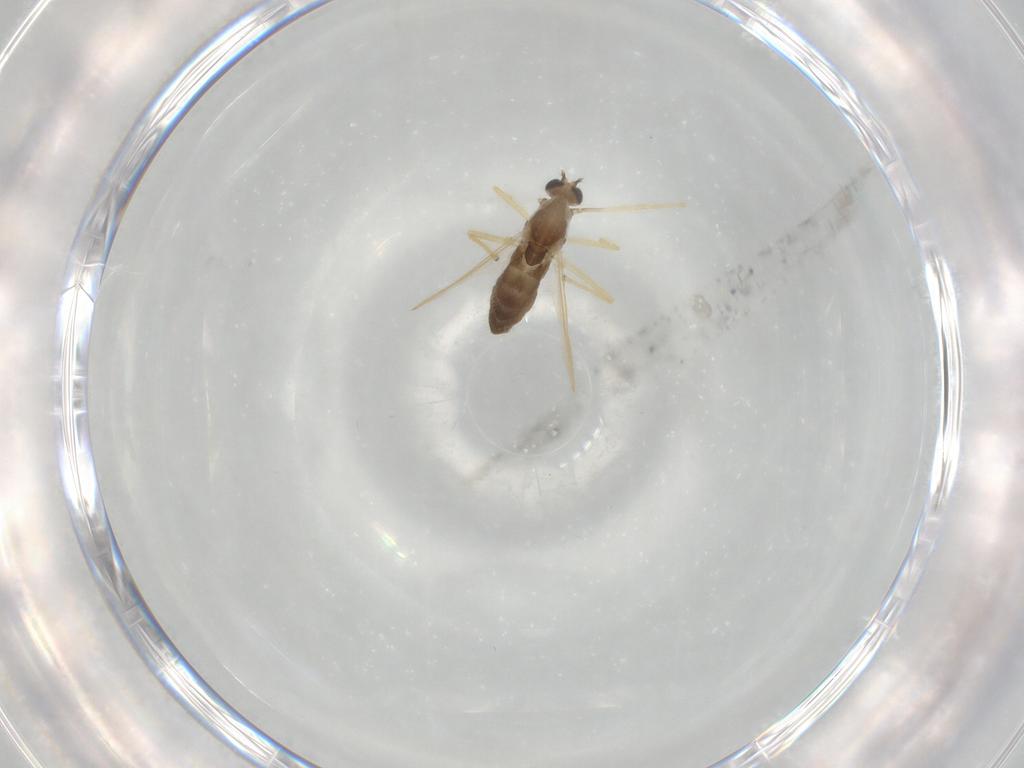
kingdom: Animalia
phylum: Arthropoda
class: Insecta
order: Diptera
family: Chironomidae
